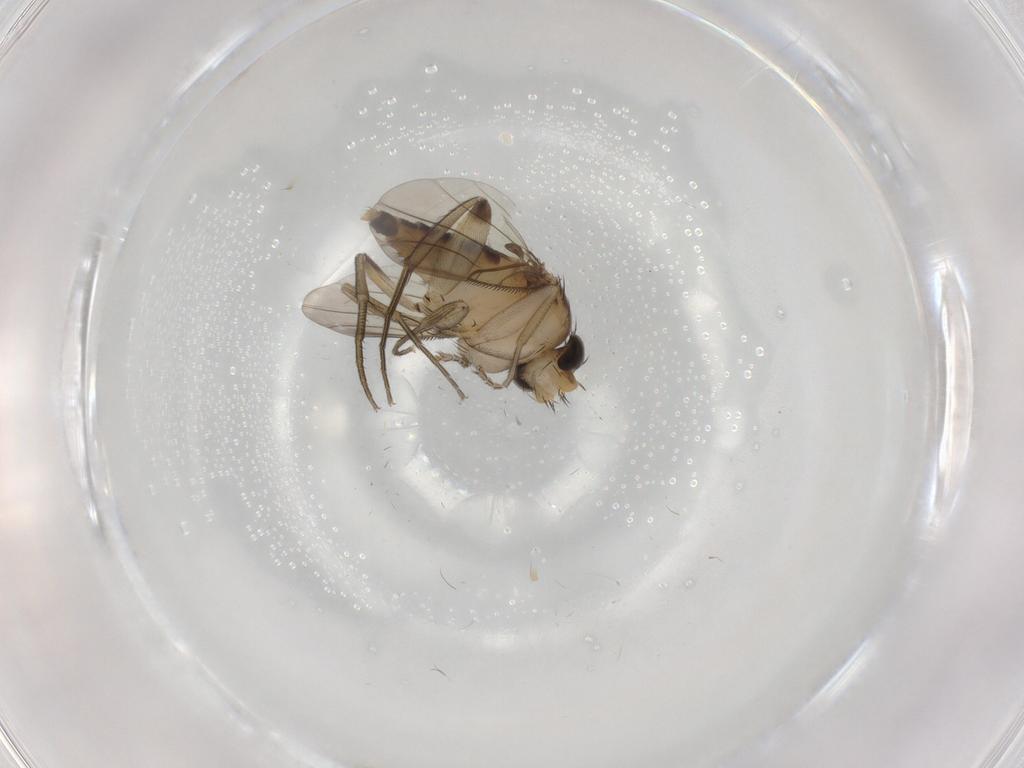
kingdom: Animalia
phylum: Arthropoda
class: Insecta
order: Diptera
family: Phoridae
